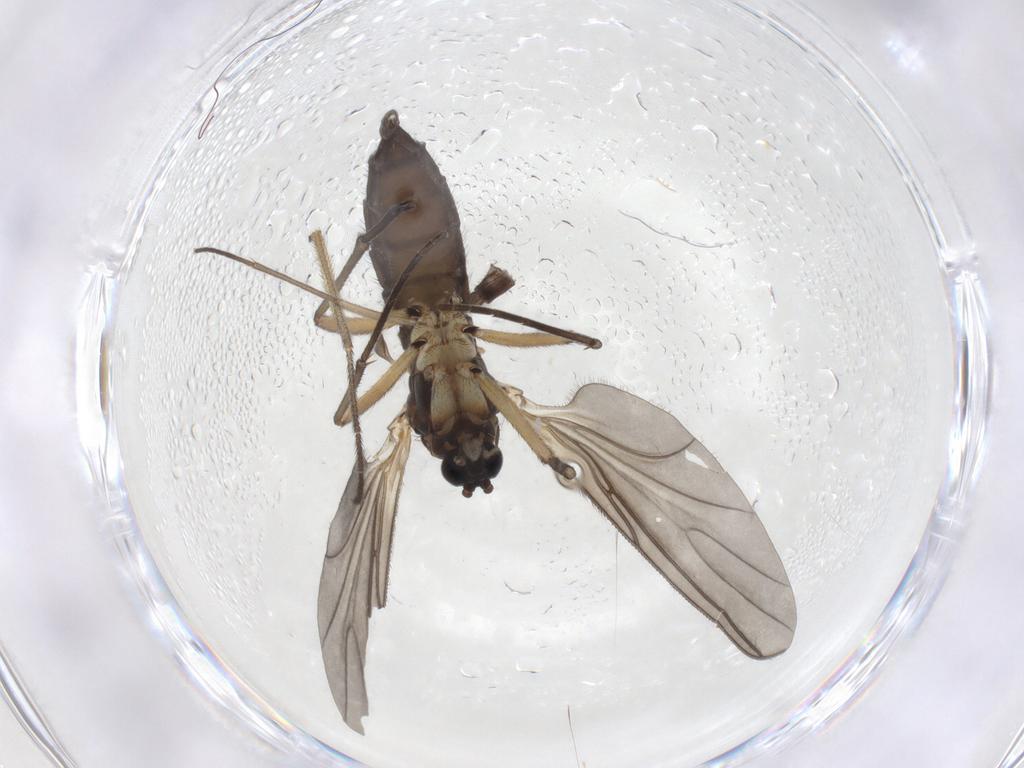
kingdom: Animalia
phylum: Arthropoda
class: Insecta
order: Diptera
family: Sciaridae
